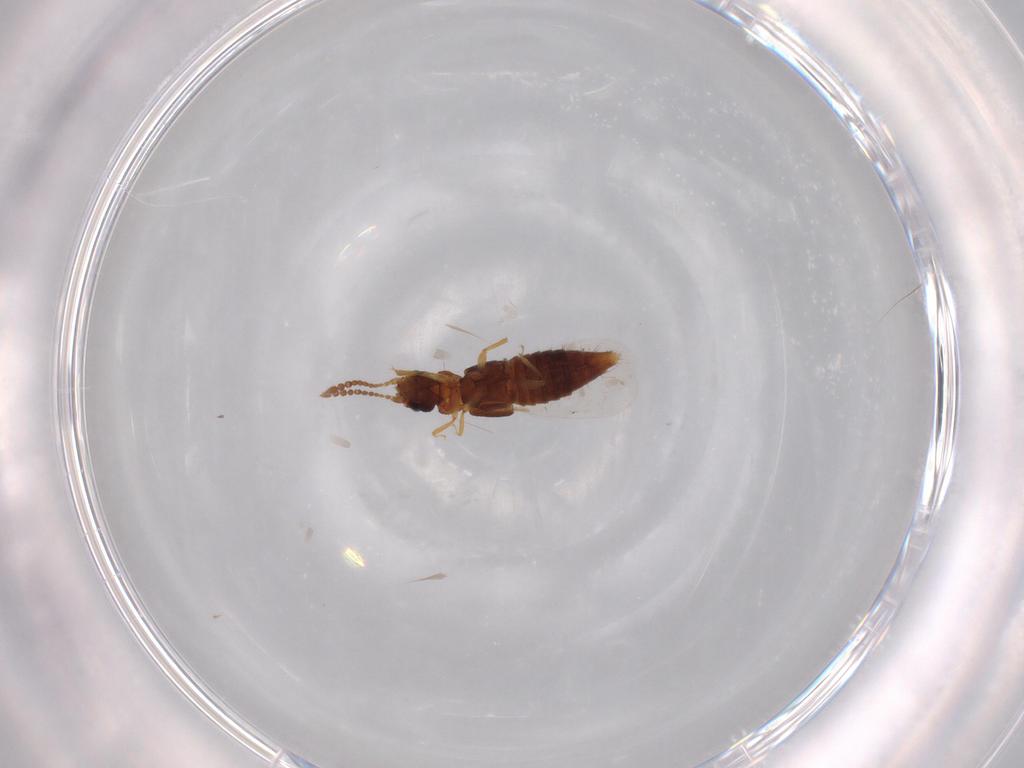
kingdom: Animalia
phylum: Arthropoda
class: Insecta
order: Coleoptera
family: Staphylinidae
